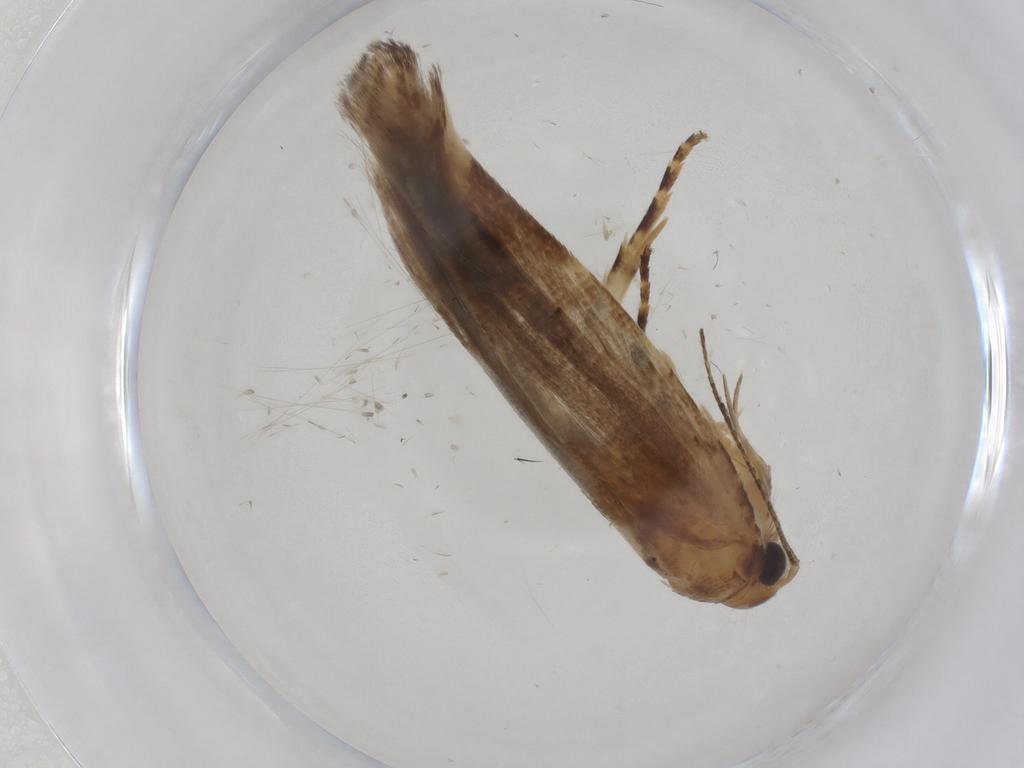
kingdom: Animalia
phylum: Arthropoda
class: Insecta
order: Lepidoptera
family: Gelechiidae
